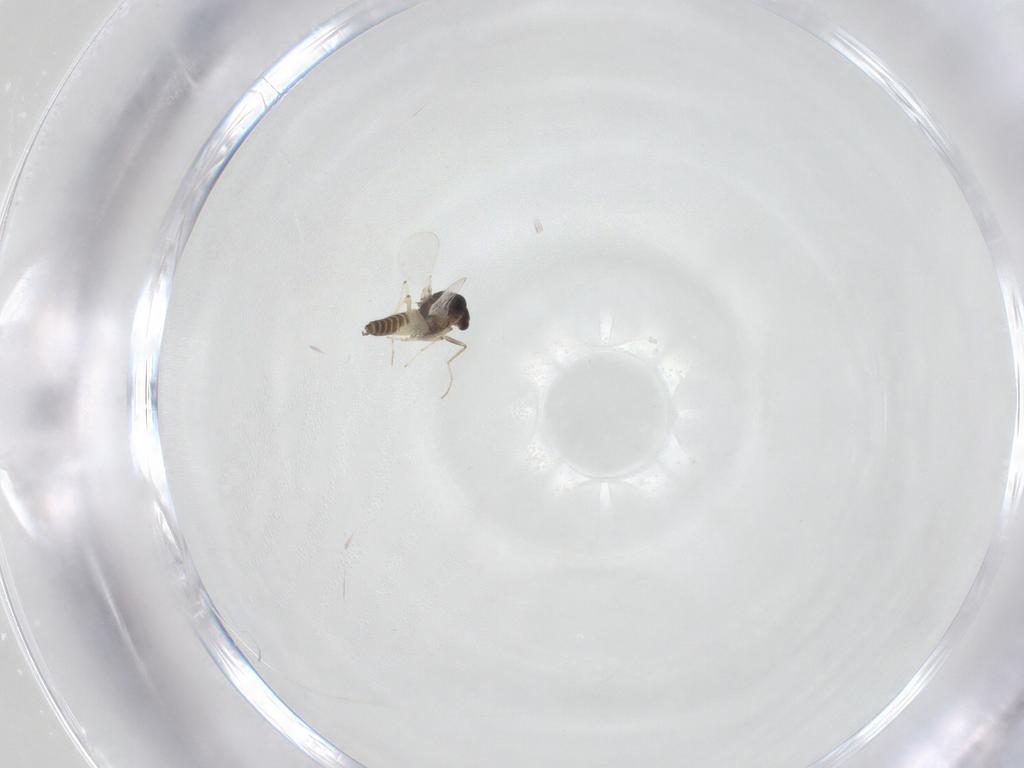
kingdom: Animalia
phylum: Arthropoda
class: Insecta
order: Diptera
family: Chironomidae
